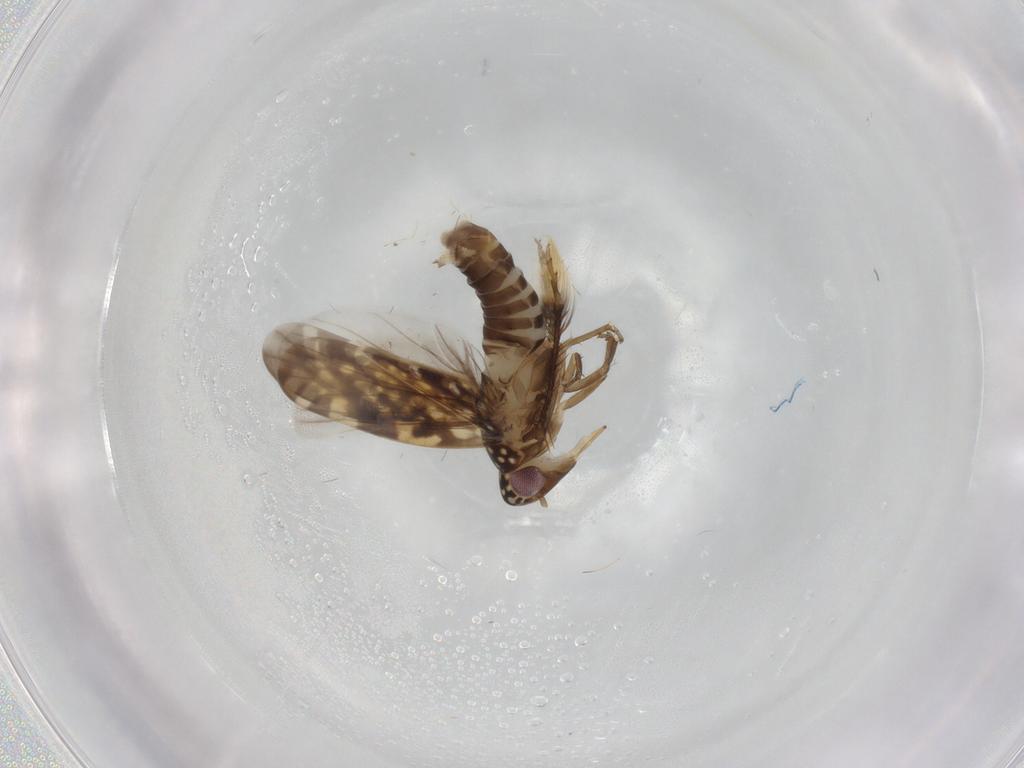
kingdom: Animalia
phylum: Arthropoda
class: Insecta
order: Hemiptera
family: Cicadellidae
